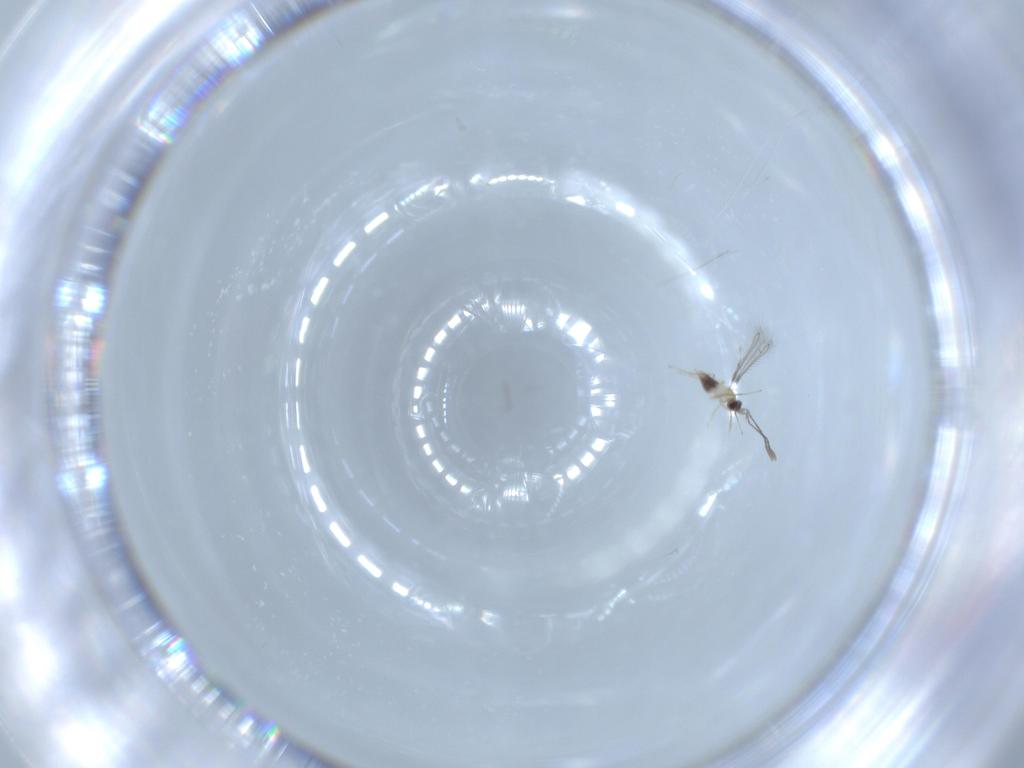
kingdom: Animalia
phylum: Arthropoda
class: Insecta
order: Hymenoptera
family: Mymaridae
